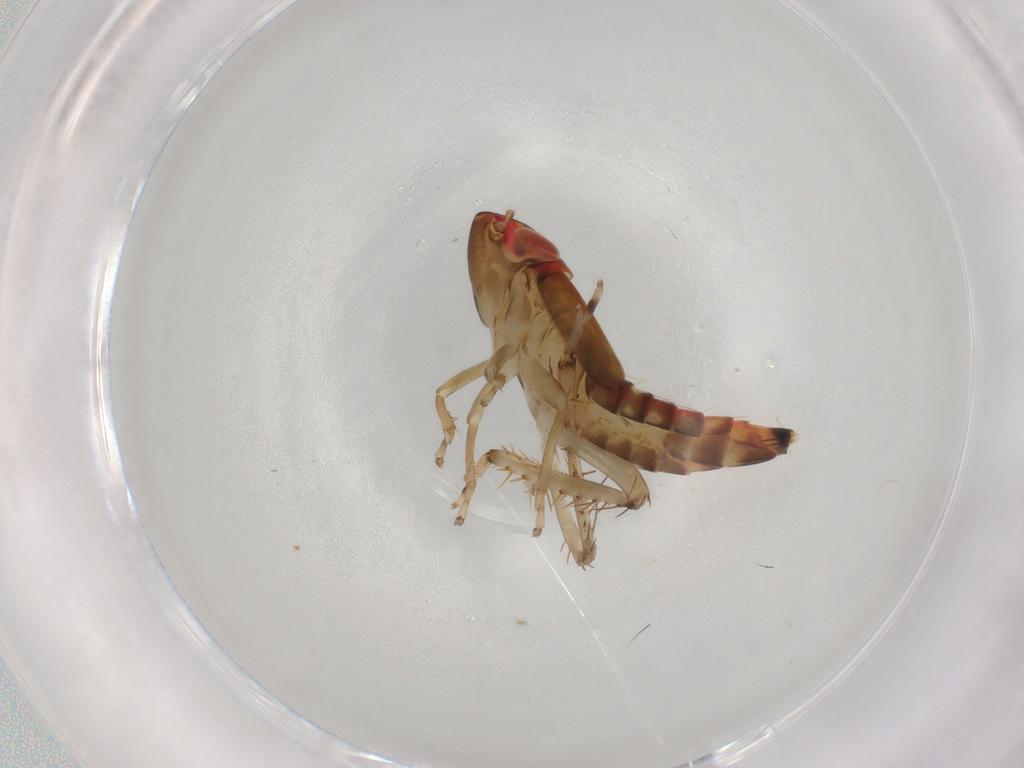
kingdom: Animalia
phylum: Arthropoda
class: Insecta
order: Hemiptera
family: Cicadellidae
